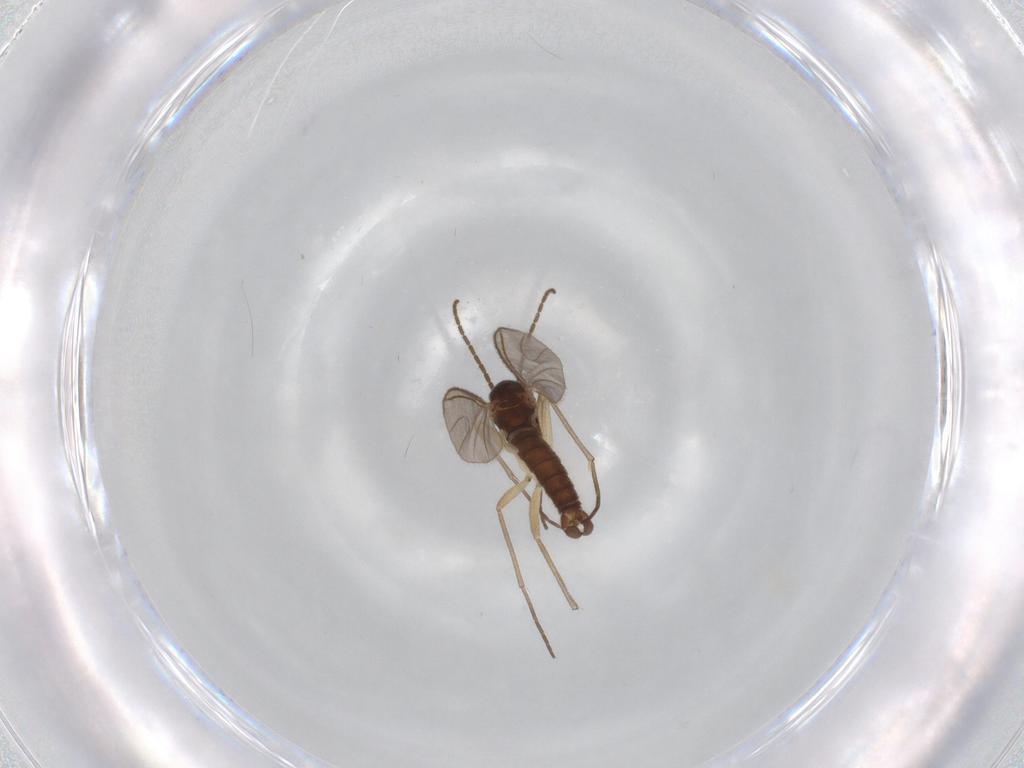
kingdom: Animalia
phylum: Arthropoda
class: Insecta
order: Diptera
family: Sciaridae
